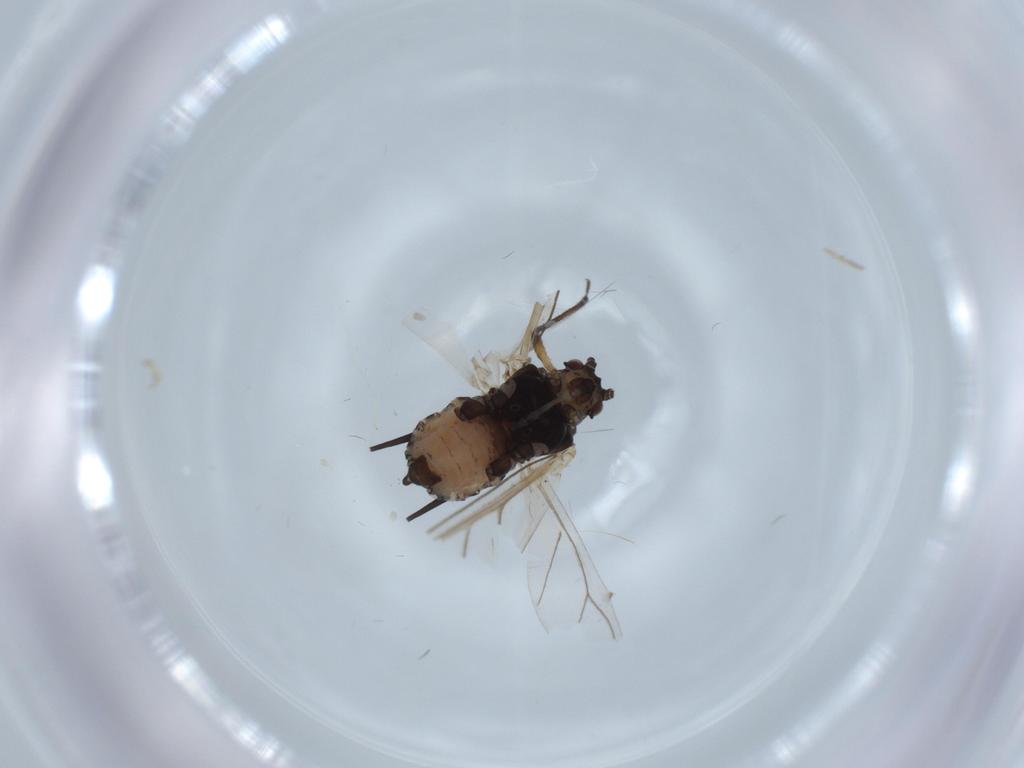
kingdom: Animalia
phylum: Arthropoda
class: Insecta
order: Hemiptera
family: Aphididae
